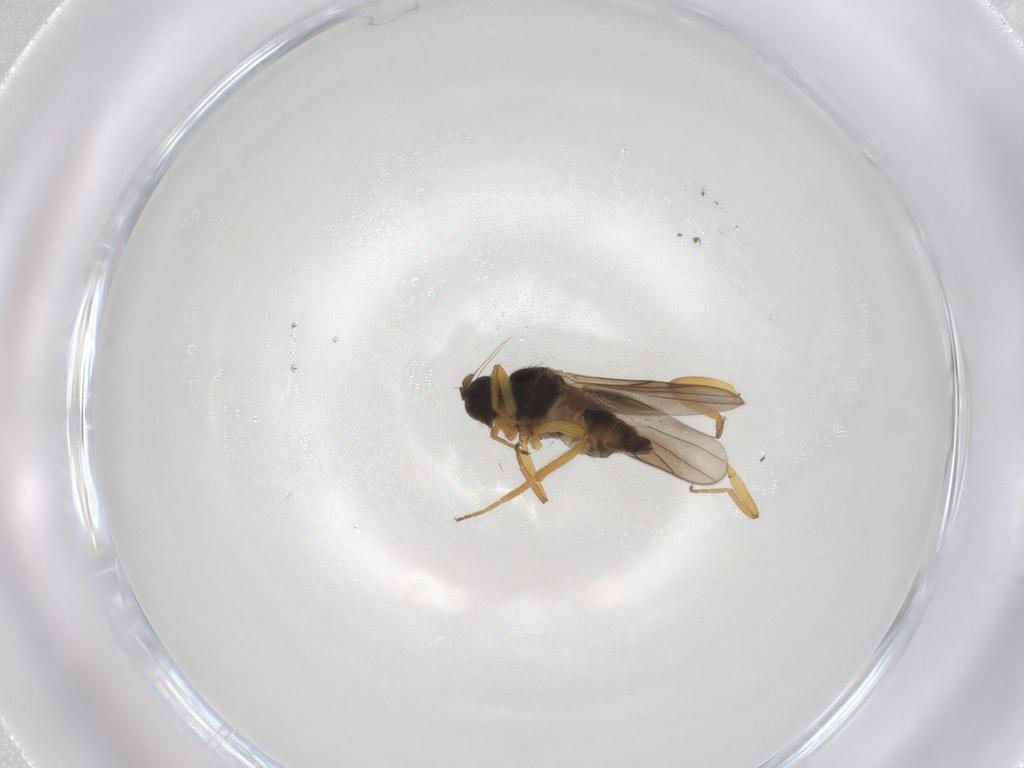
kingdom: Animalia
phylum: Arthropoda
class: Insecta
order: Diptera
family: Hybotidae
